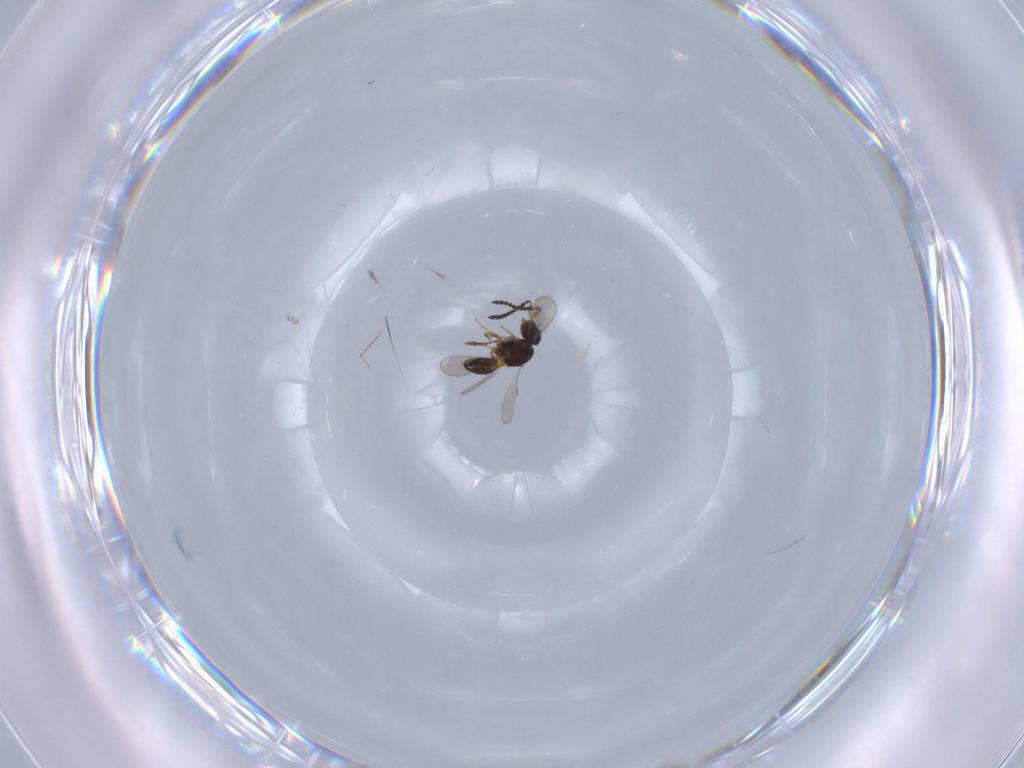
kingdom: Animalia
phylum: Arthropoda
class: Insecta
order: Hymenoptera
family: Scelionidae
